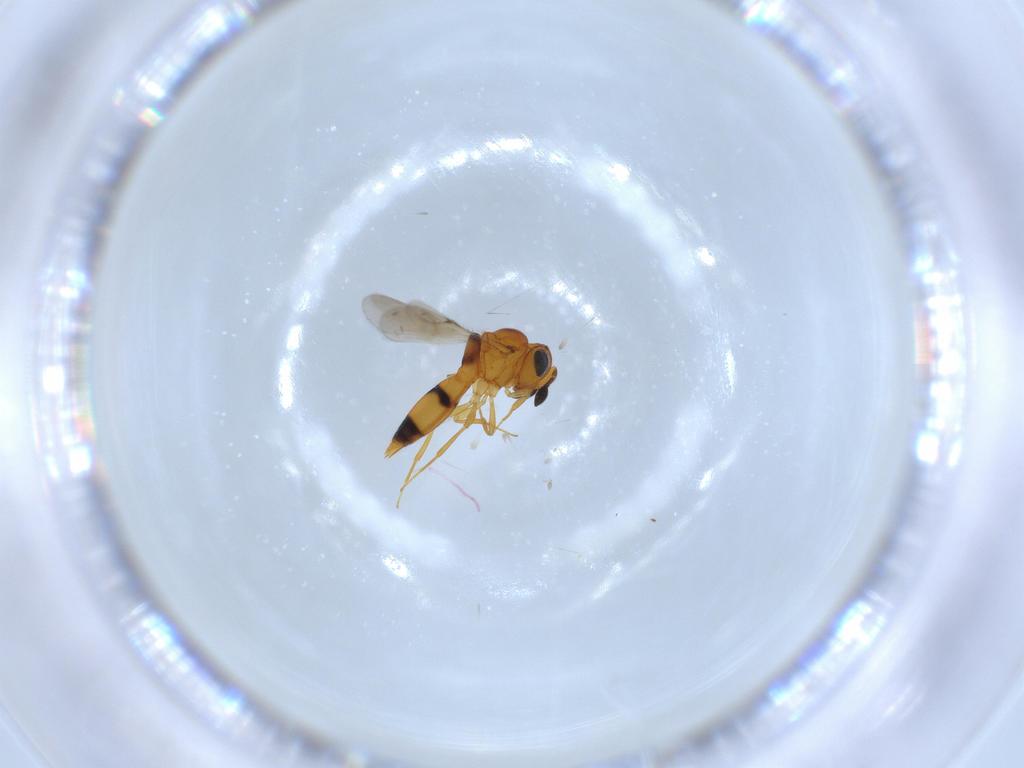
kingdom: Animalia
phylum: Arthropoda
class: Insecta
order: Hymenoptera
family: Scelionidae
